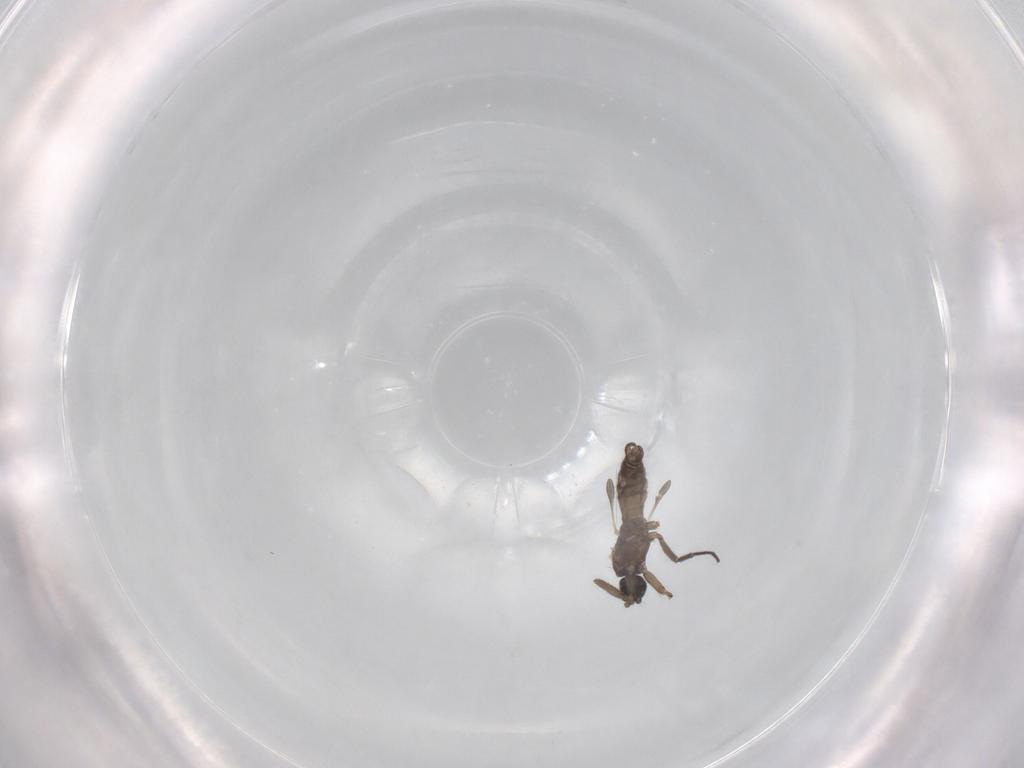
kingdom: Animalia
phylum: Arthropoda
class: Insecta
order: Diptera
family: Sciaridae
